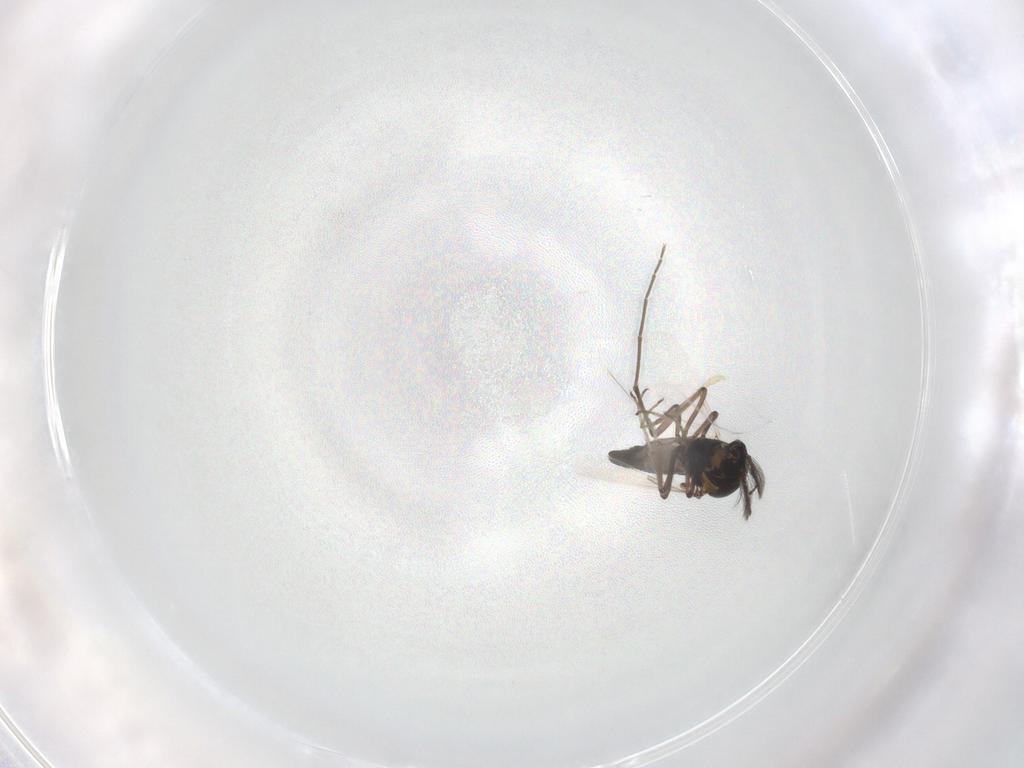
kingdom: Animalia
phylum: Arthropoda
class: Insecta
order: Diptera
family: Ceratopogonidae
